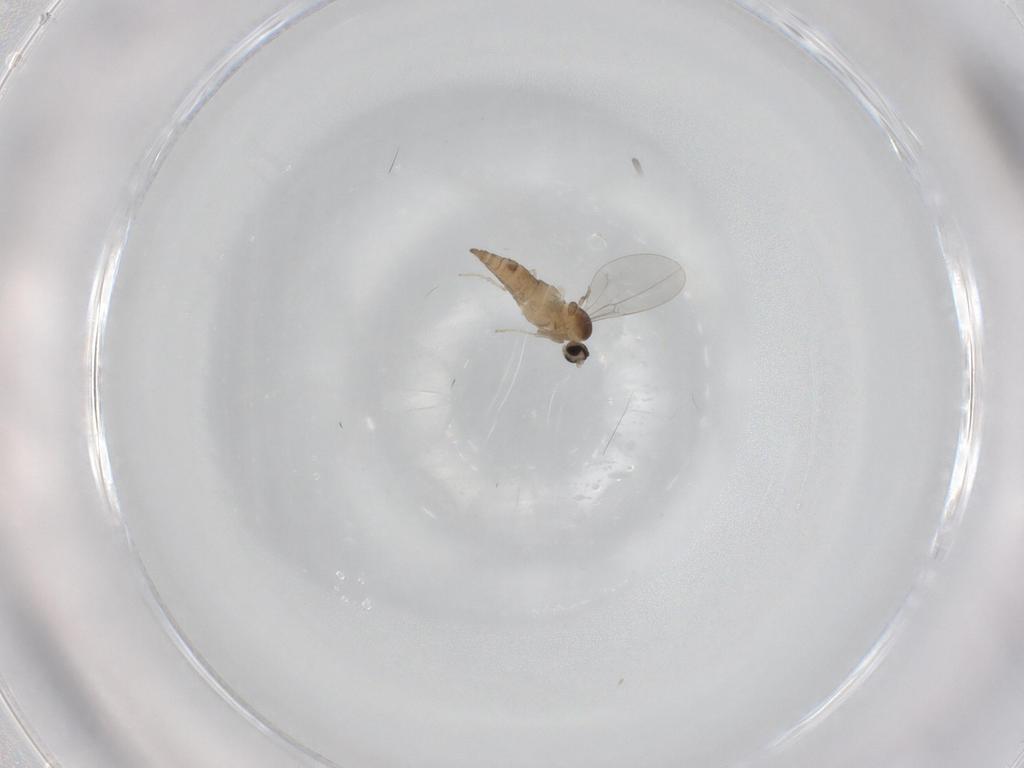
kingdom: Animalia
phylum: Arthropoda
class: Insecta
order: Diptera
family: Cecidomyiidae
